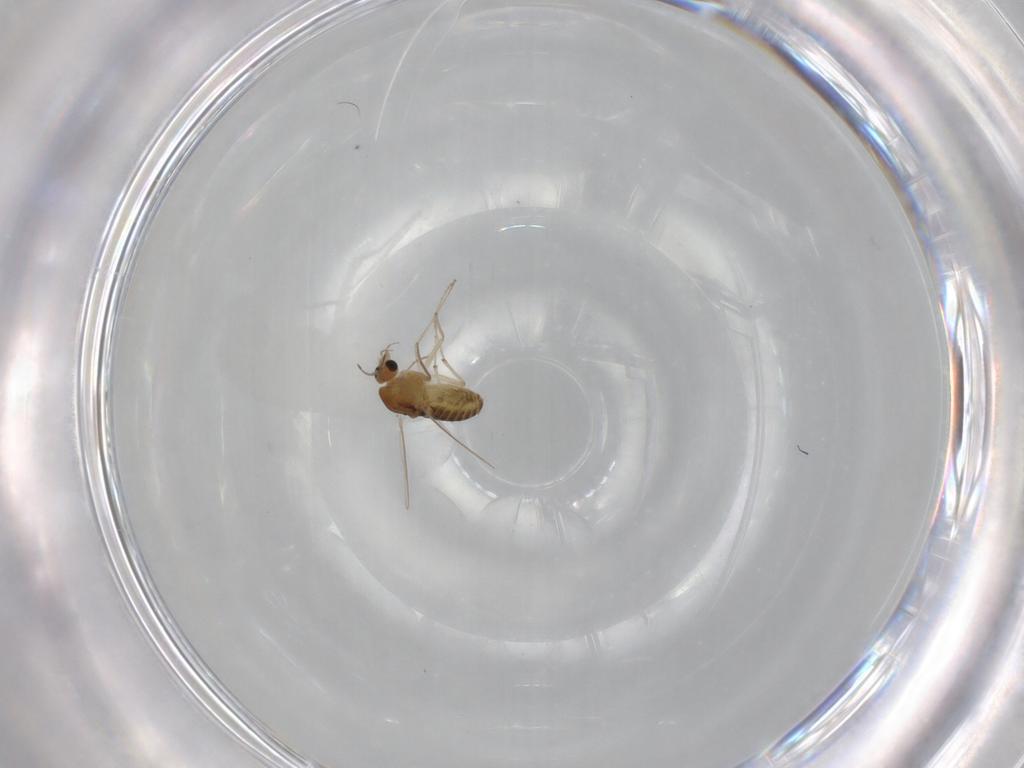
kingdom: Animalia
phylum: Arthropoda
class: Insecta
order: Diptera
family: Chironomidae
